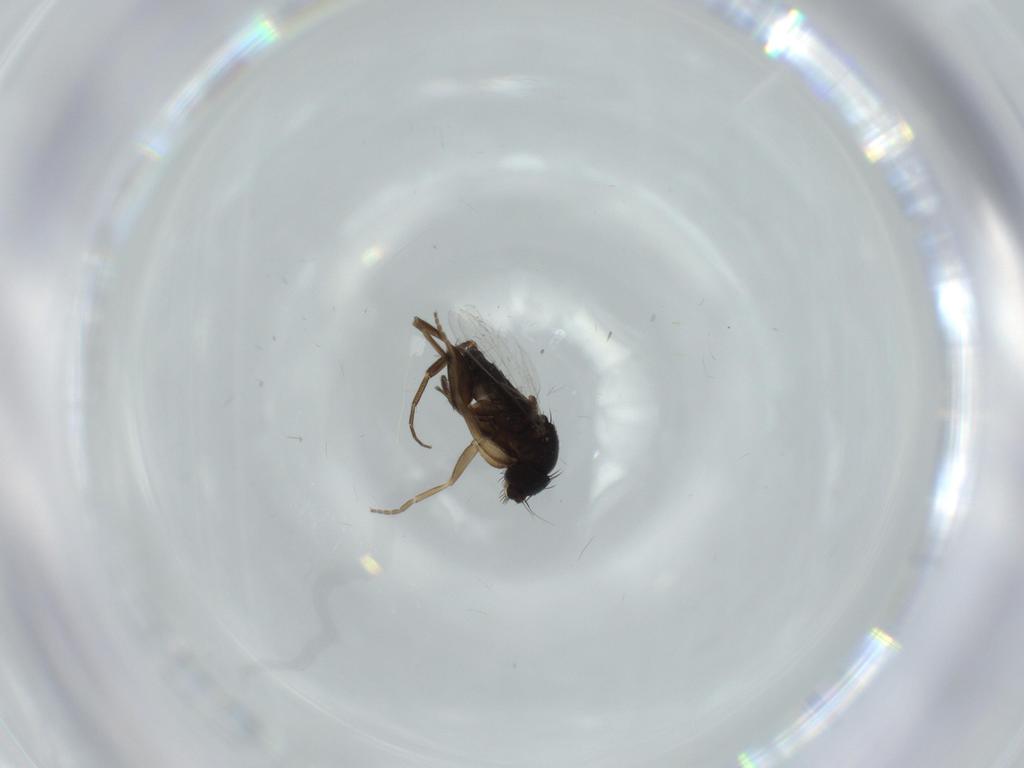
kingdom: Animalia
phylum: Arthropoda
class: Insecta
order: Diptera
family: Phoridae
